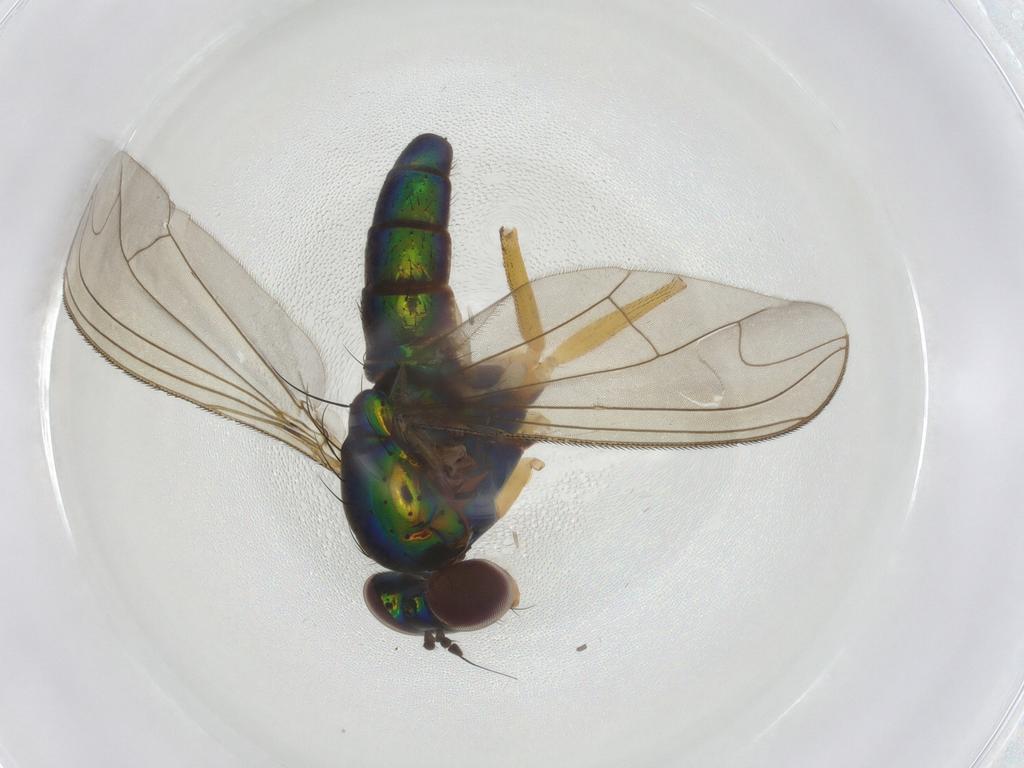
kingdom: Animalia
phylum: Arthropoda
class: Insecta
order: Diptera
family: Dolichopodidae
